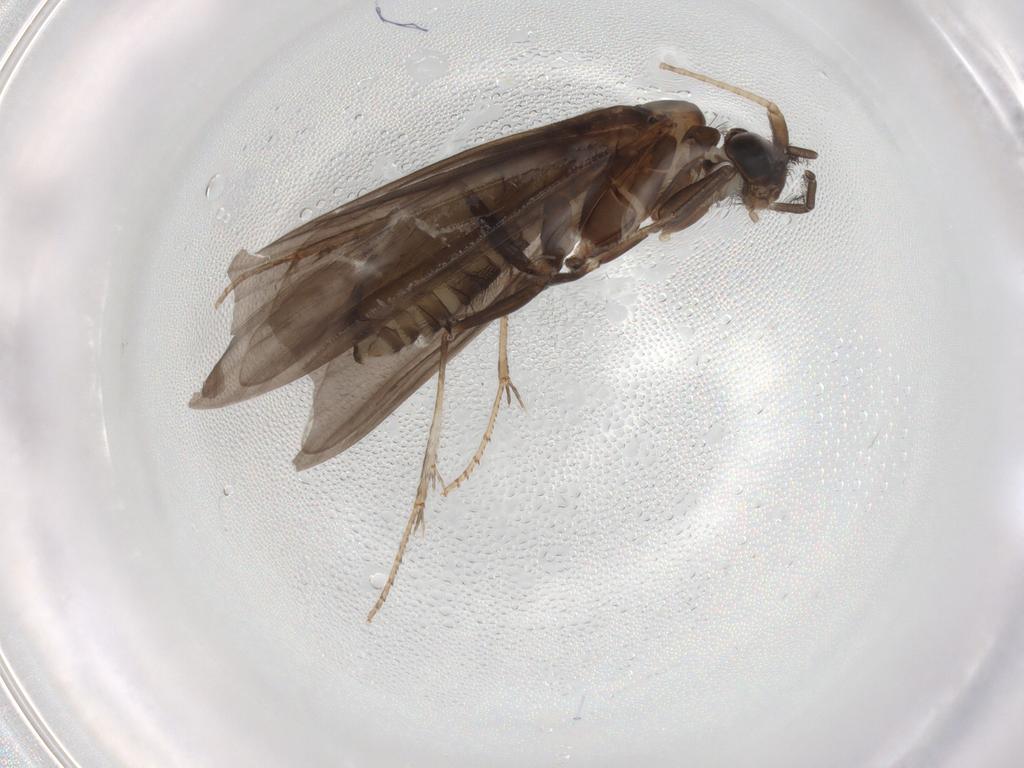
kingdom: Animalia
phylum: Arthropoda
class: Insecta
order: Trichoptera
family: Helicopsychidae
